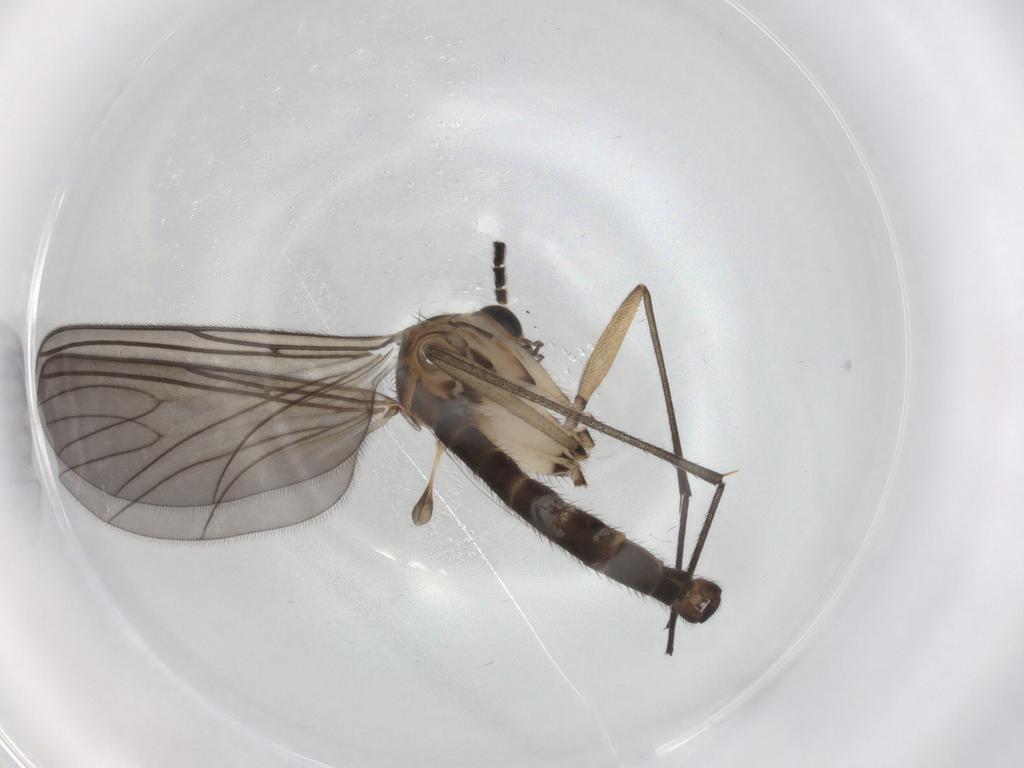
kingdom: Animalia
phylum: Arthropoda
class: Insecta
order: Diptera
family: Sciaridae
